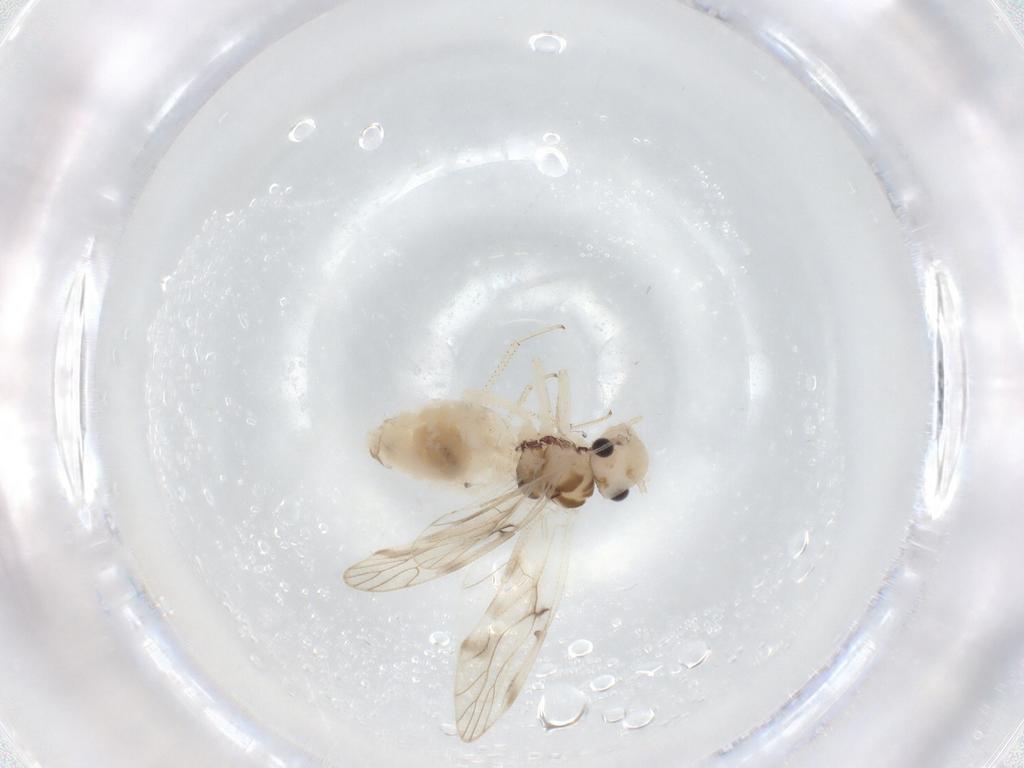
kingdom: Animalia
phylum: Arthropoda
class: Insecta
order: Psocodea
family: Caeciliusidae
